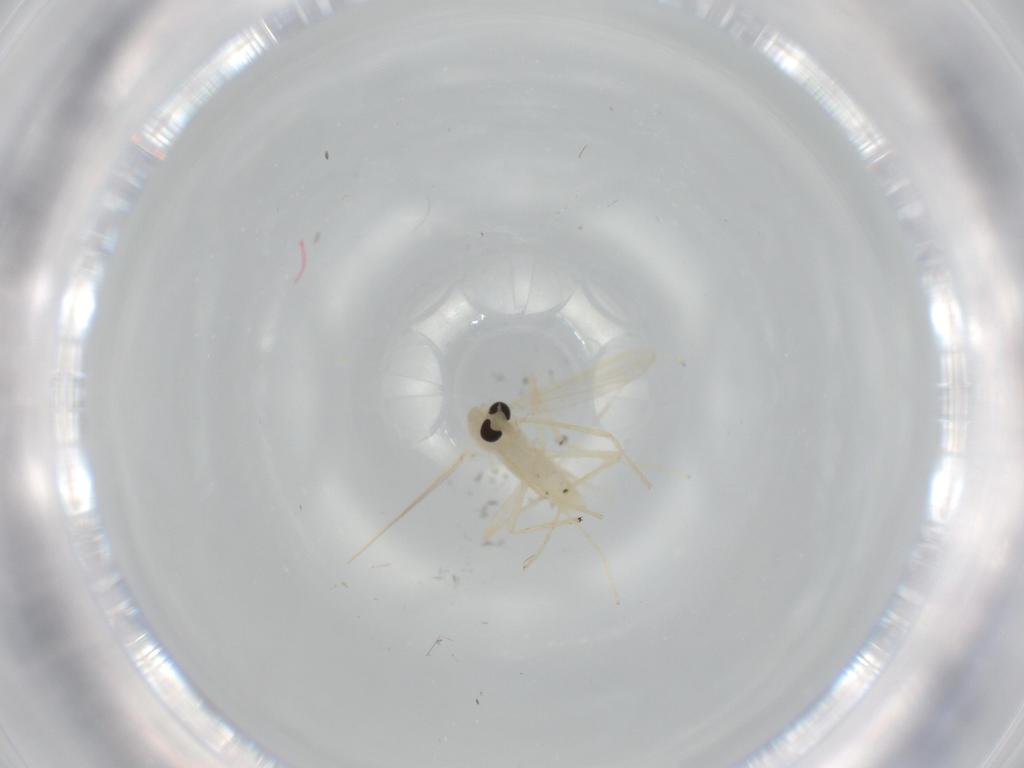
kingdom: Animalia
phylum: Arthropoda
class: Insecta
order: Diptera
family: Chironomidae
